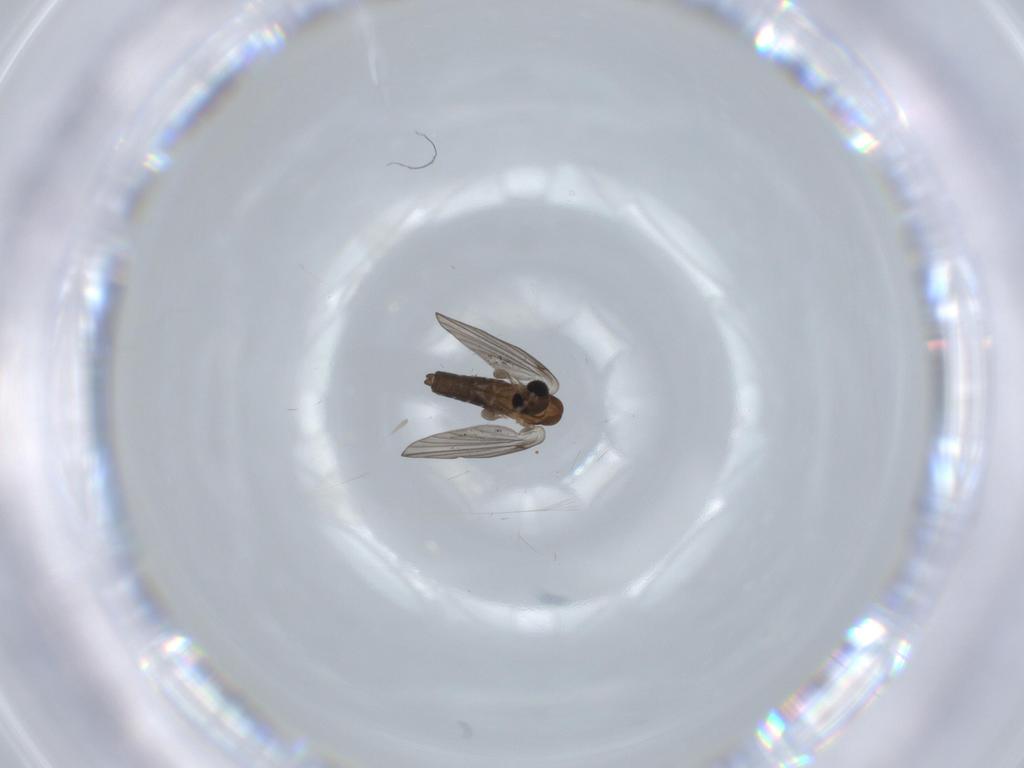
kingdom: Animalia
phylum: Arthropoda
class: Insecta
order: Diptera
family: Psychodidae
